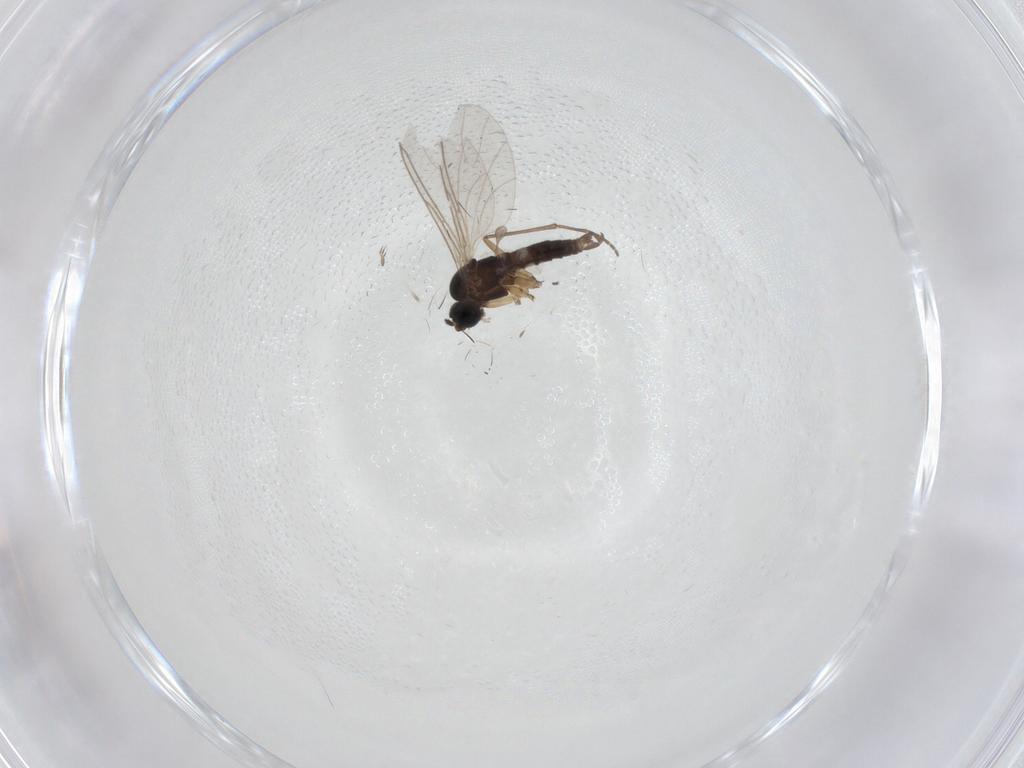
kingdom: Animalia
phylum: Arthropoda
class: Insecta
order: Diptera
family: Sciaridae
